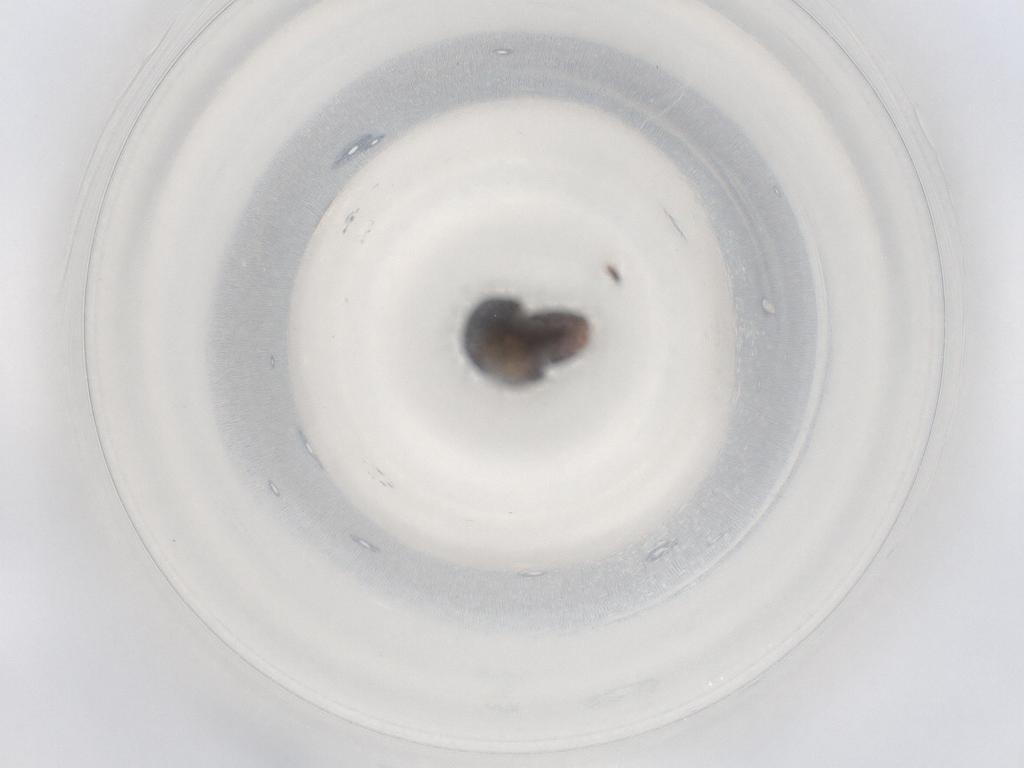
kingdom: Animalia
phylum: Arthropoda
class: Insecta
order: Coleoptera
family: Cybocephalidae
